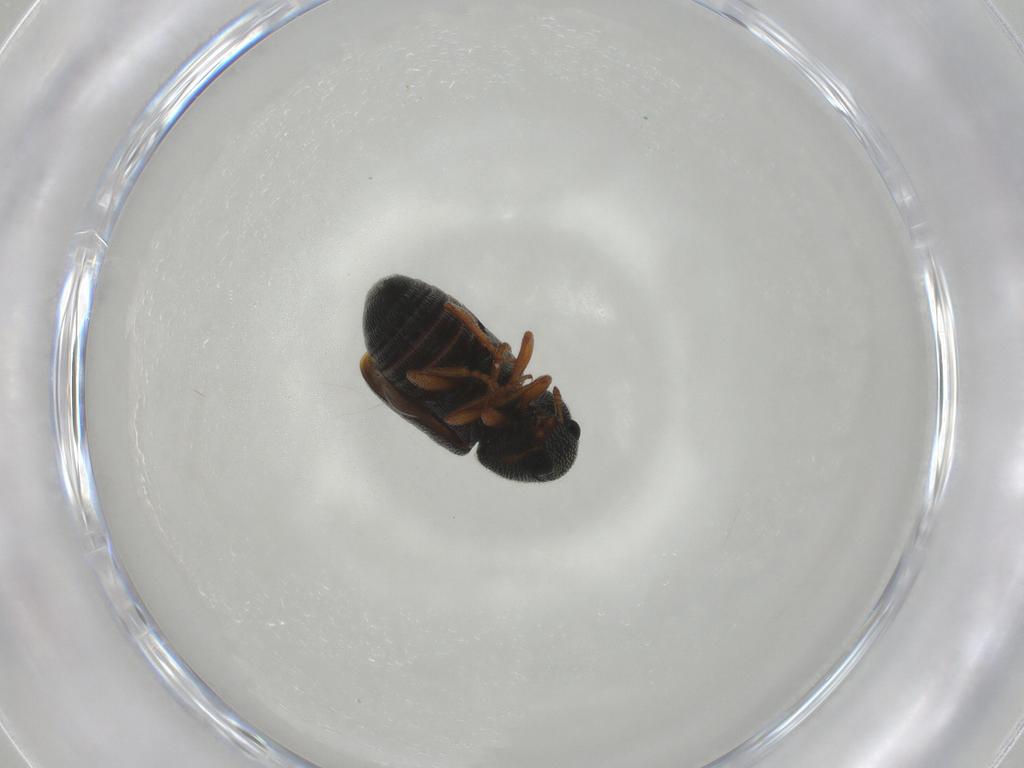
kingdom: Animalia
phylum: Arthropoda
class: Insecta
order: Coleoptera
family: Anthribidae
